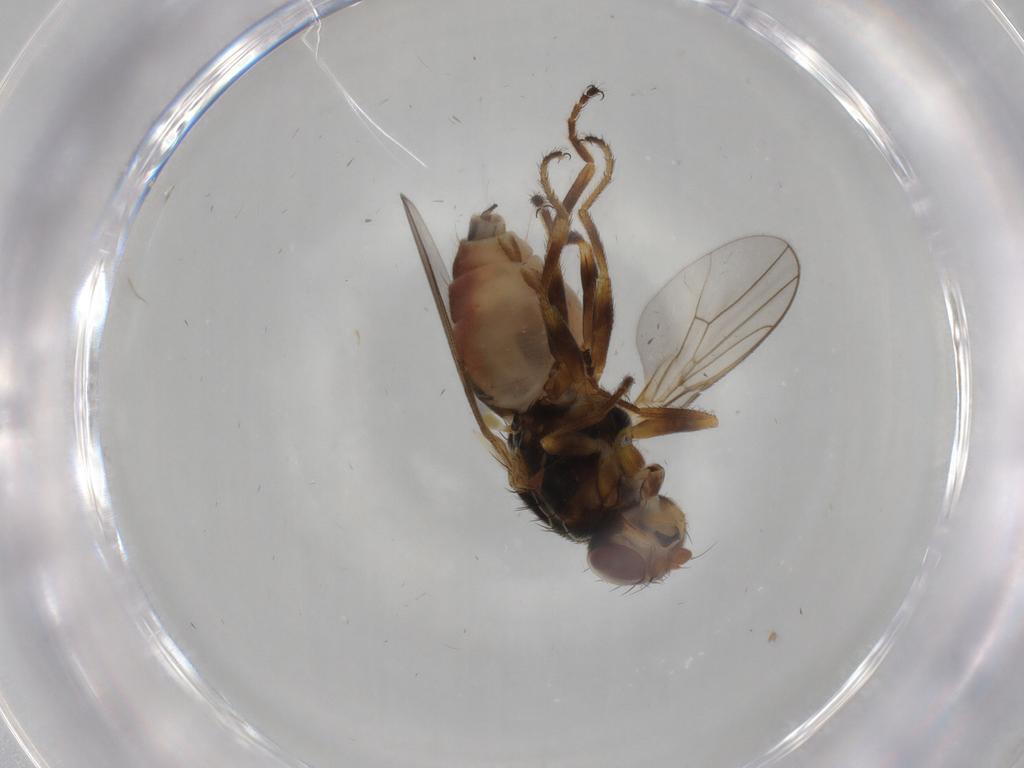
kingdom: Animalia
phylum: Arthropoda
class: Insecta
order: Diptera
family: Chloropidae
